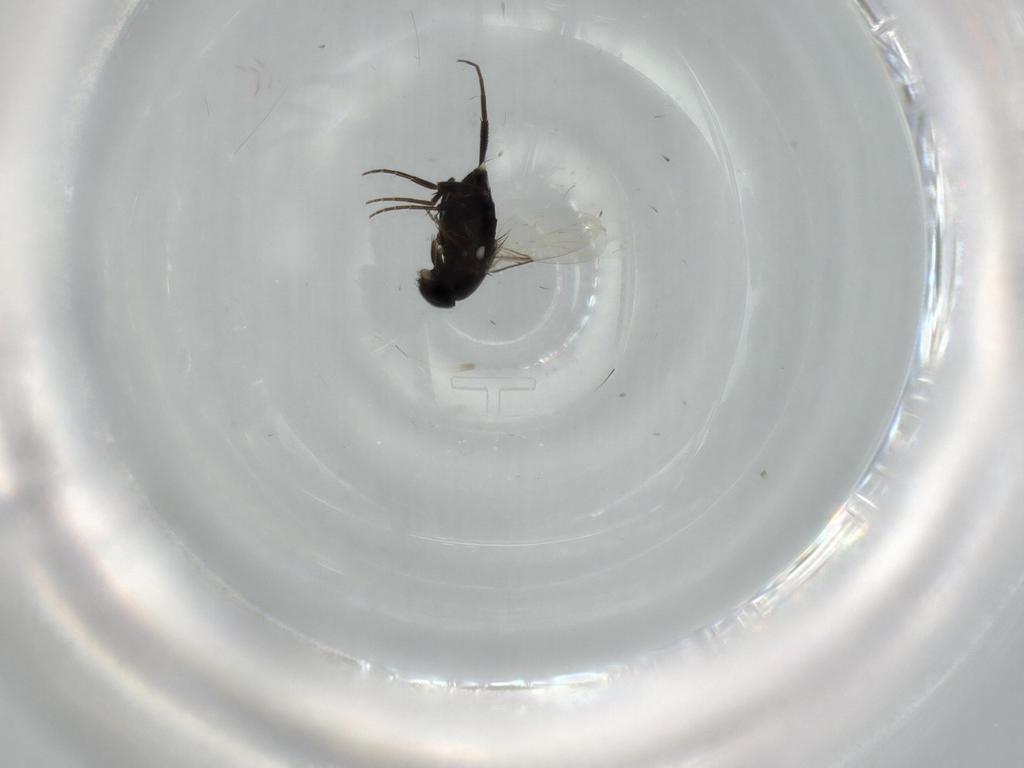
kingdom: Animalia
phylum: Arthropoda
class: Insecta
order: Diptera
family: Phoridae
